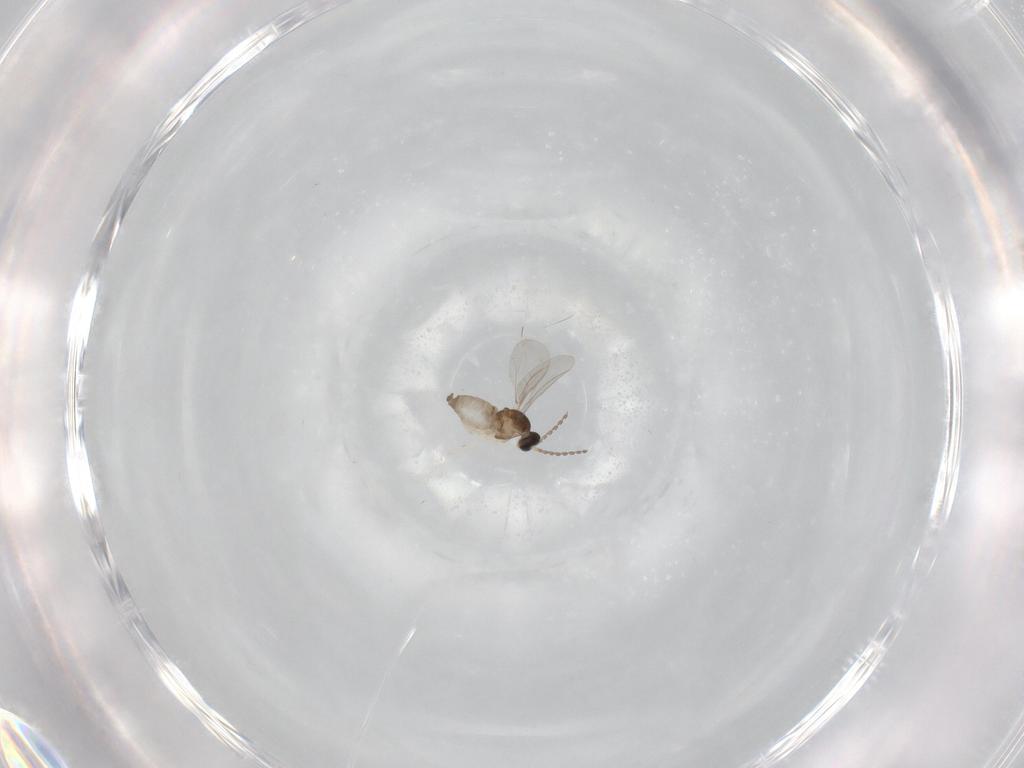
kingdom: Animalia
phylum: Arthropoda
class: Insecta
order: Diptera
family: Cecidomyiidae
